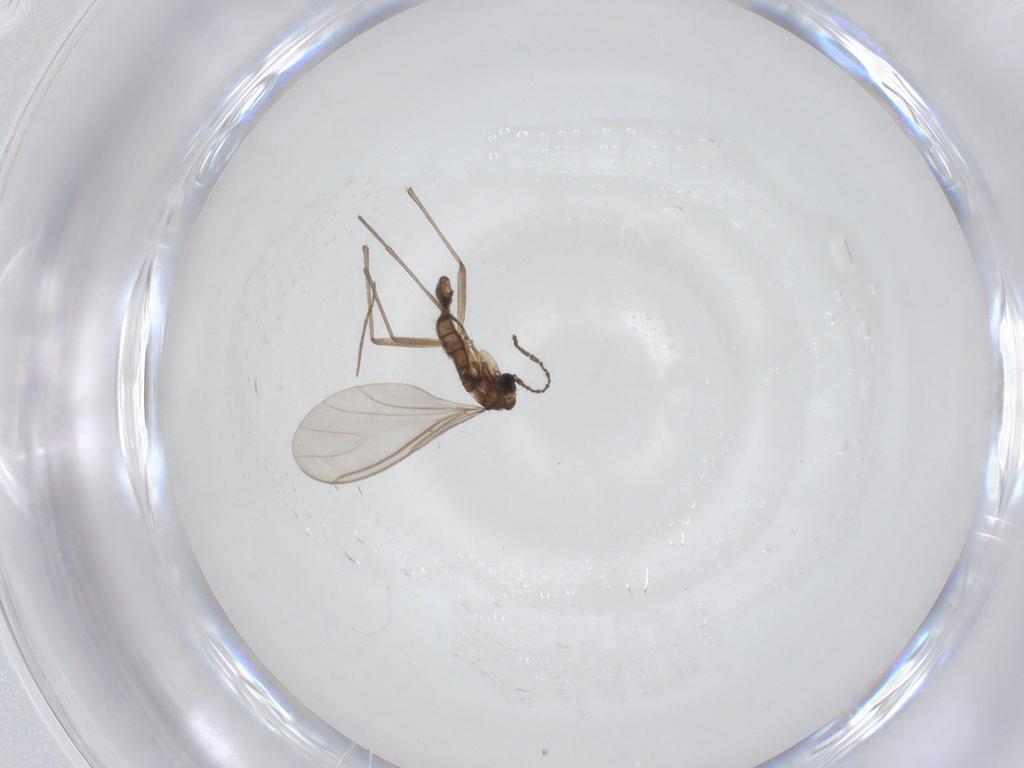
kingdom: Animalia
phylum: Arthropoda
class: Insecta
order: Diptera
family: Sciaridae
